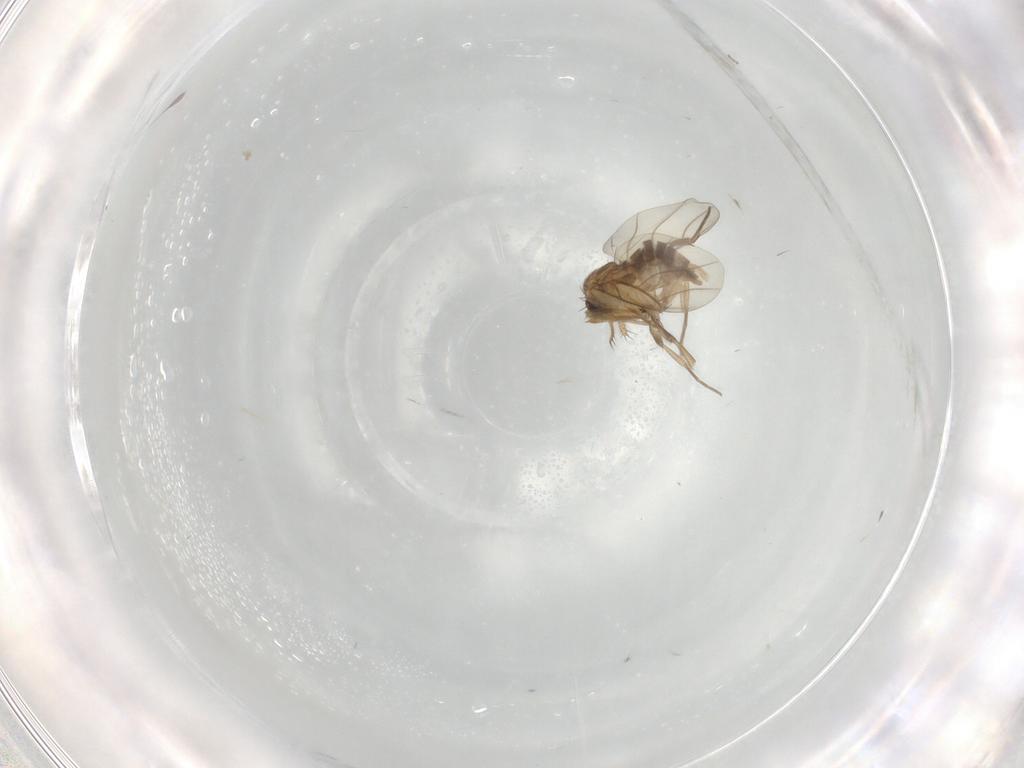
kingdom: Animalia
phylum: Arthropoda
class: Insecta
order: Diptera
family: Phoridae
